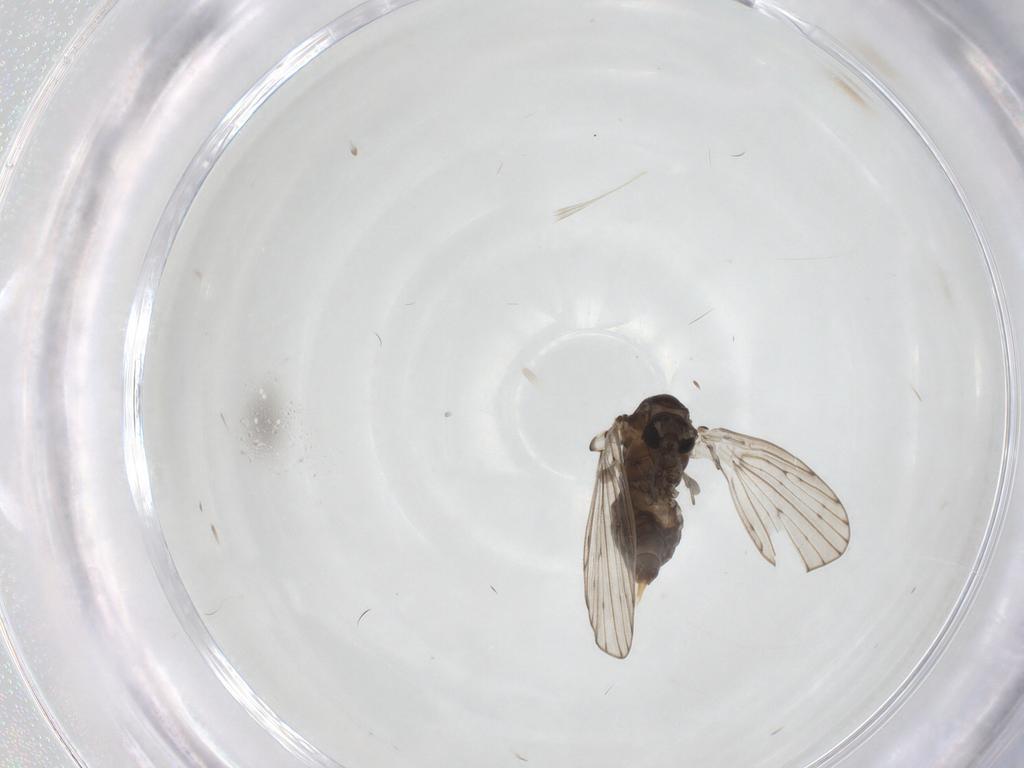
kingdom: Animalia
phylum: Arthropoda
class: Insecta
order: Diptera
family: Psychodidae
